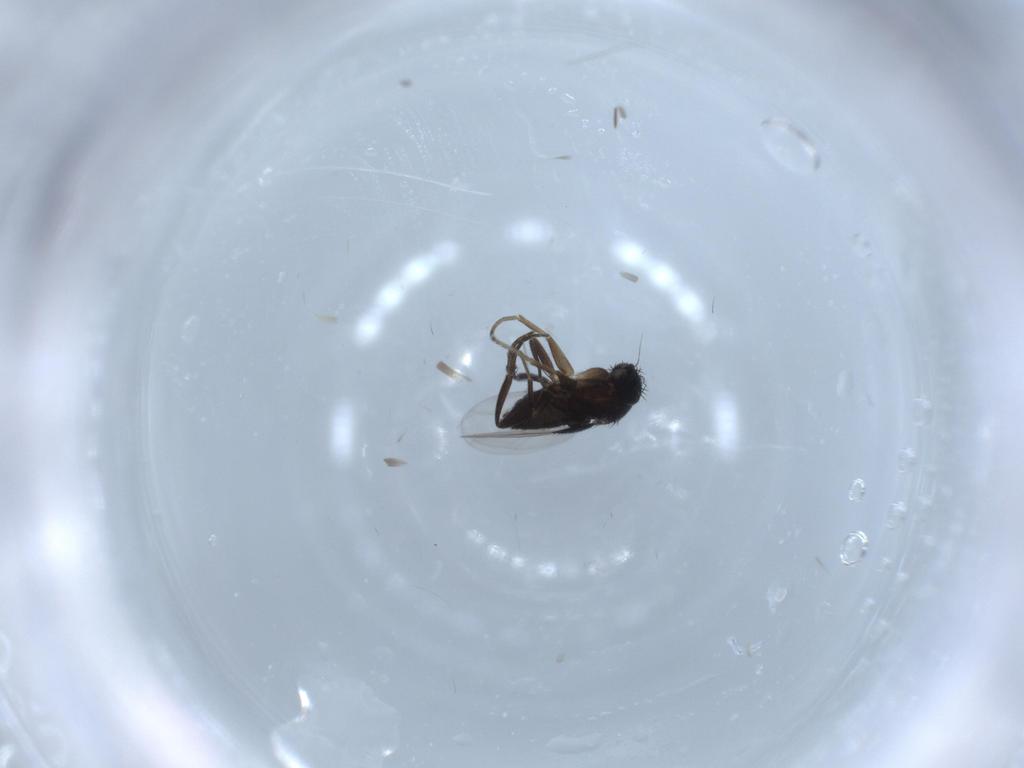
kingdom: Animalia
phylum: Arthropoda
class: Insecta
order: Diptera
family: Phoridae
